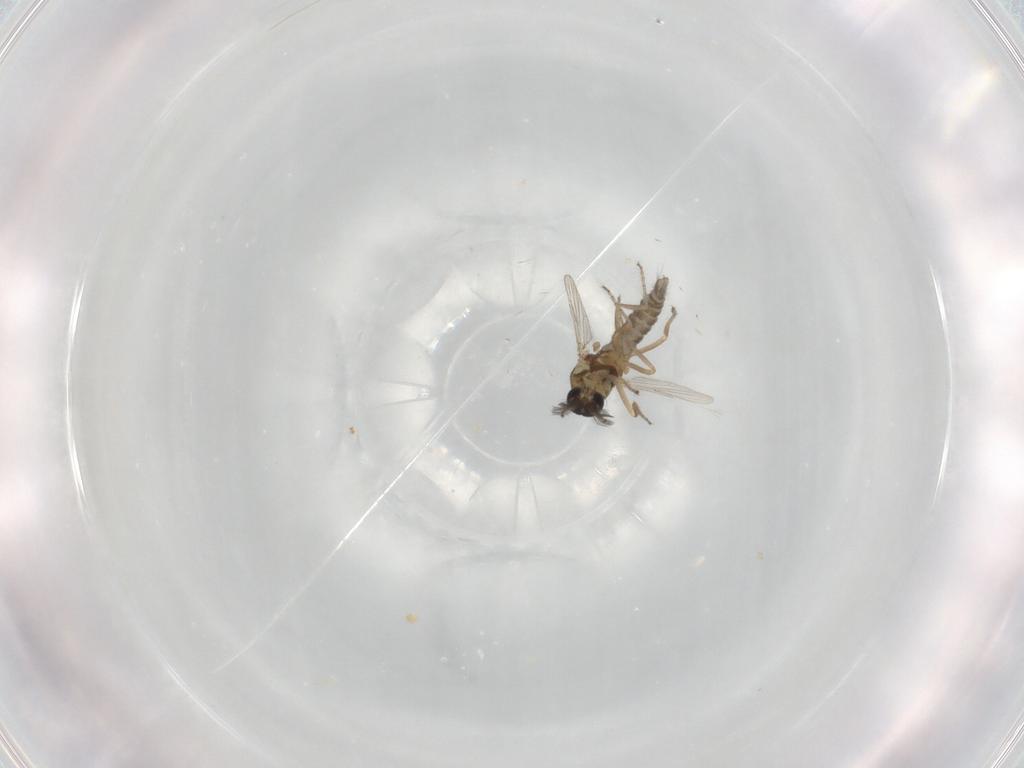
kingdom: Animalia
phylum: Arthropoda
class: Insecta
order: Diptera
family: Ceratopogonidae
